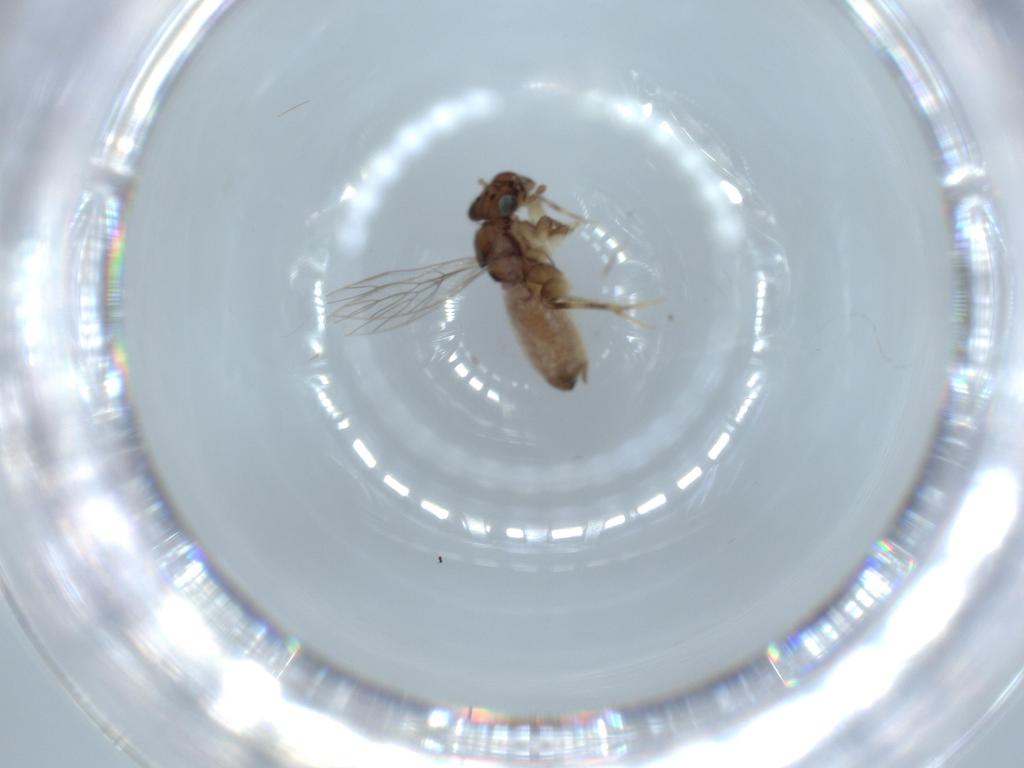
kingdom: Animalia
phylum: Arthropoda
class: Insecta
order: Psocodea
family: Lepidopsocidae
